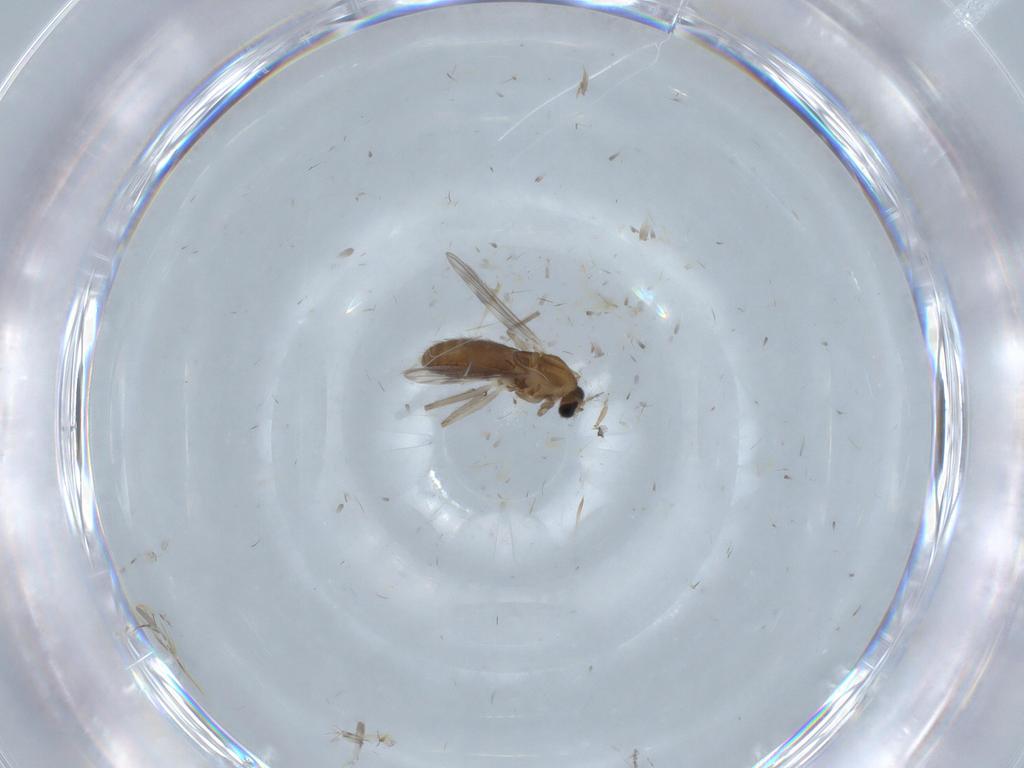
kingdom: Animalia
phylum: Arthropoda
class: Insecta
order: Diptera
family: Chironomidae
